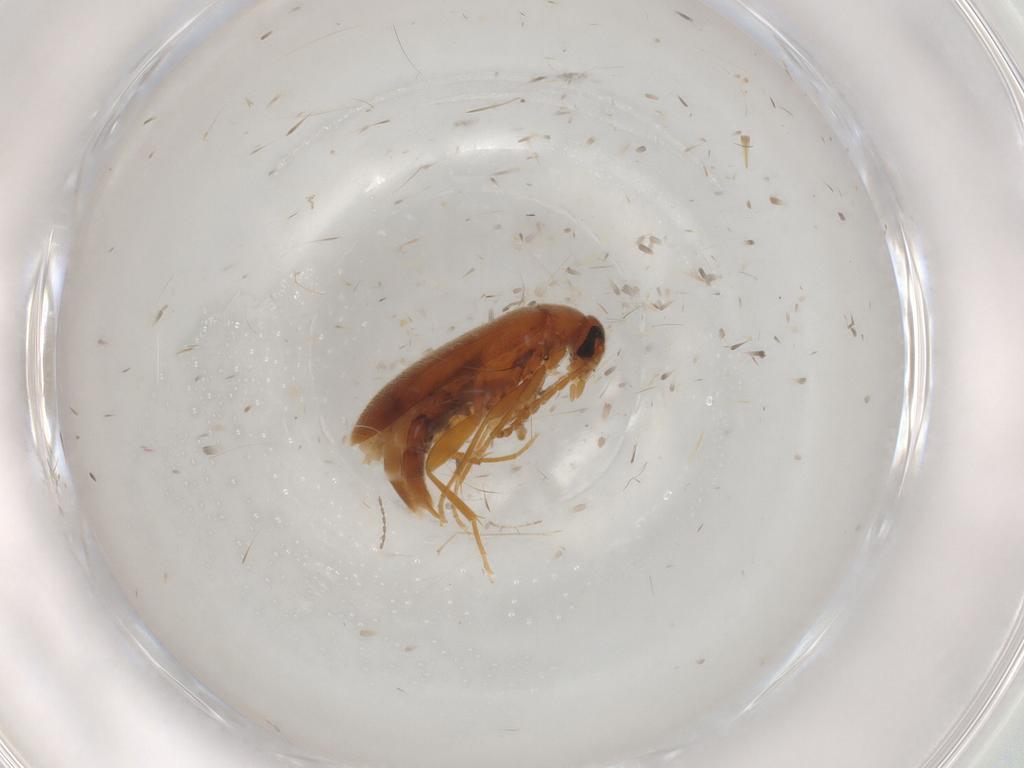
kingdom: Animalia
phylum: Arthropoda
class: Insecta
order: Coleoptera
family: Scraptiidae
